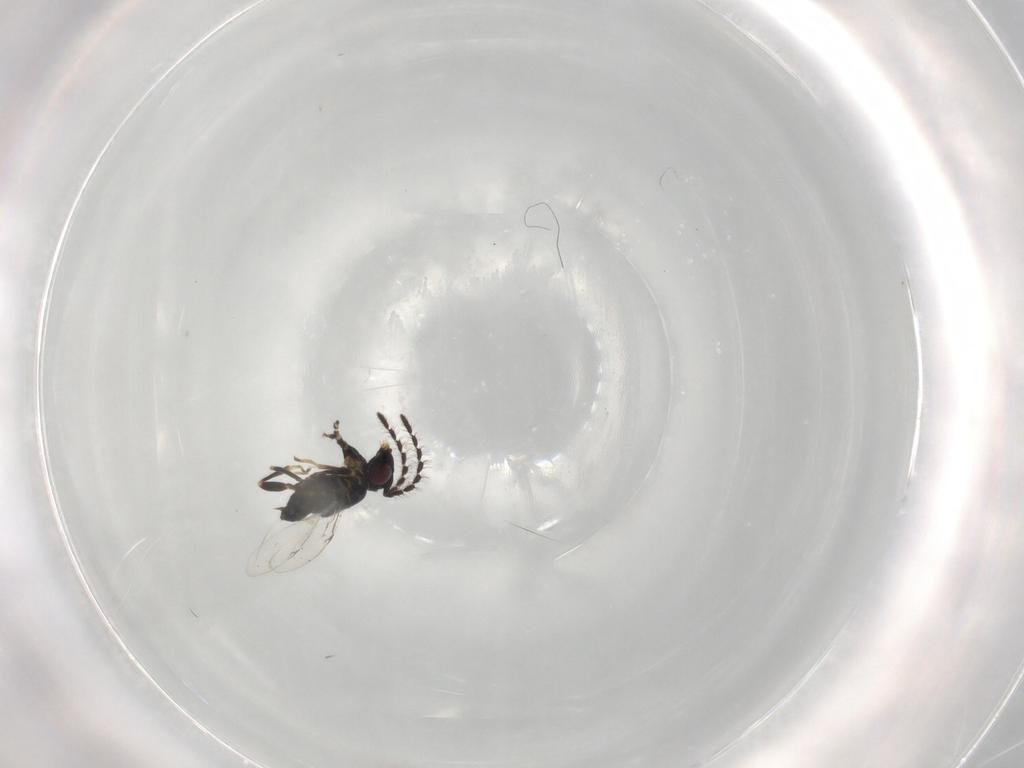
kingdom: Animalia
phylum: Arthropoda
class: Insecta
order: Hymenoptera
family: Encyrtidae
